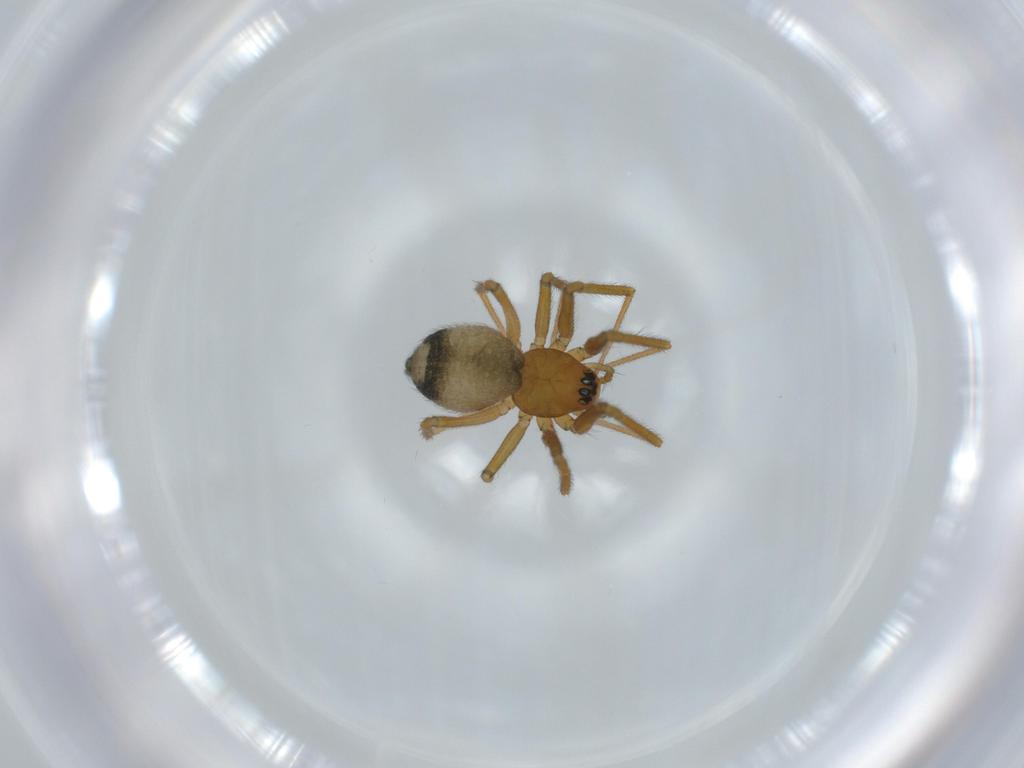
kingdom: Animalia
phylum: Arthropoda
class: Arachnida
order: Araneae
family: Linyphiidae
